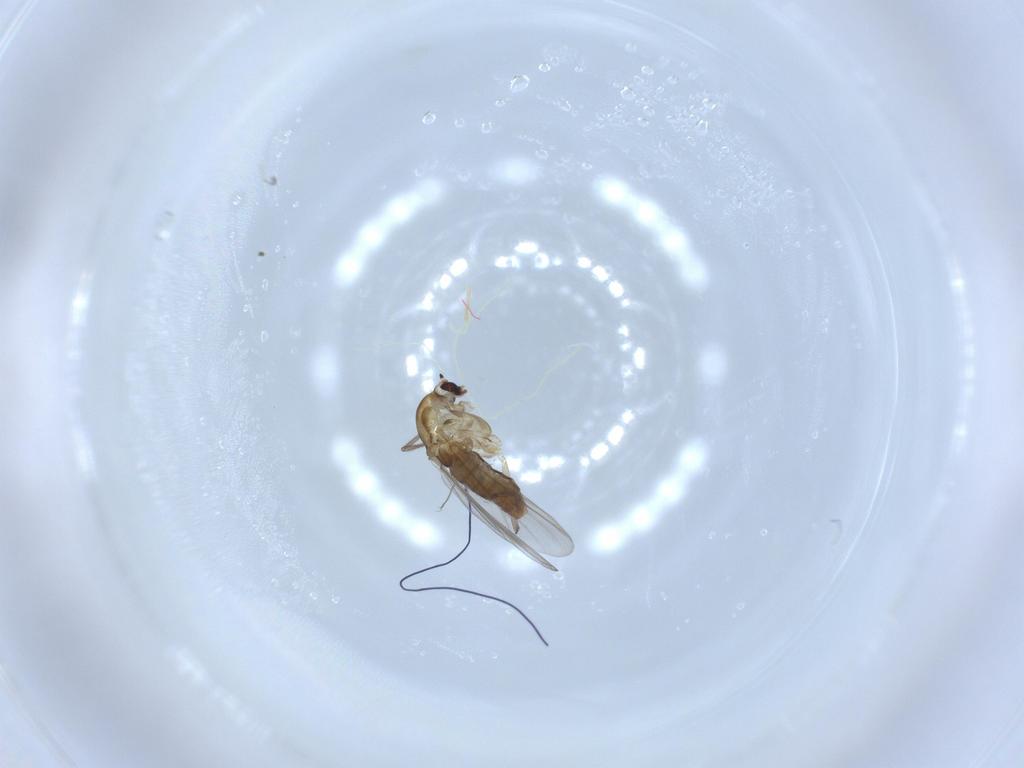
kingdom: Animalia
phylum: Arthropoda
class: Insecta
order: Diptera
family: Chironomidae
